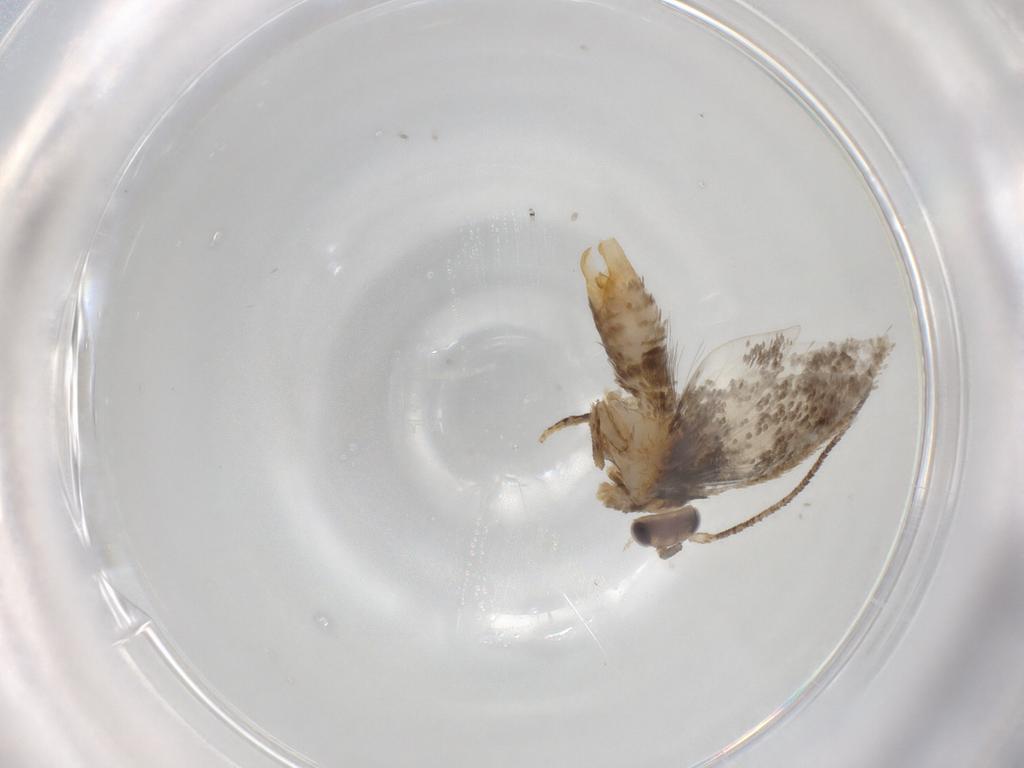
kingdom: Animalia
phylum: Arthropoda
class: Insecta
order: Lepidoptera
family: Tineidae
